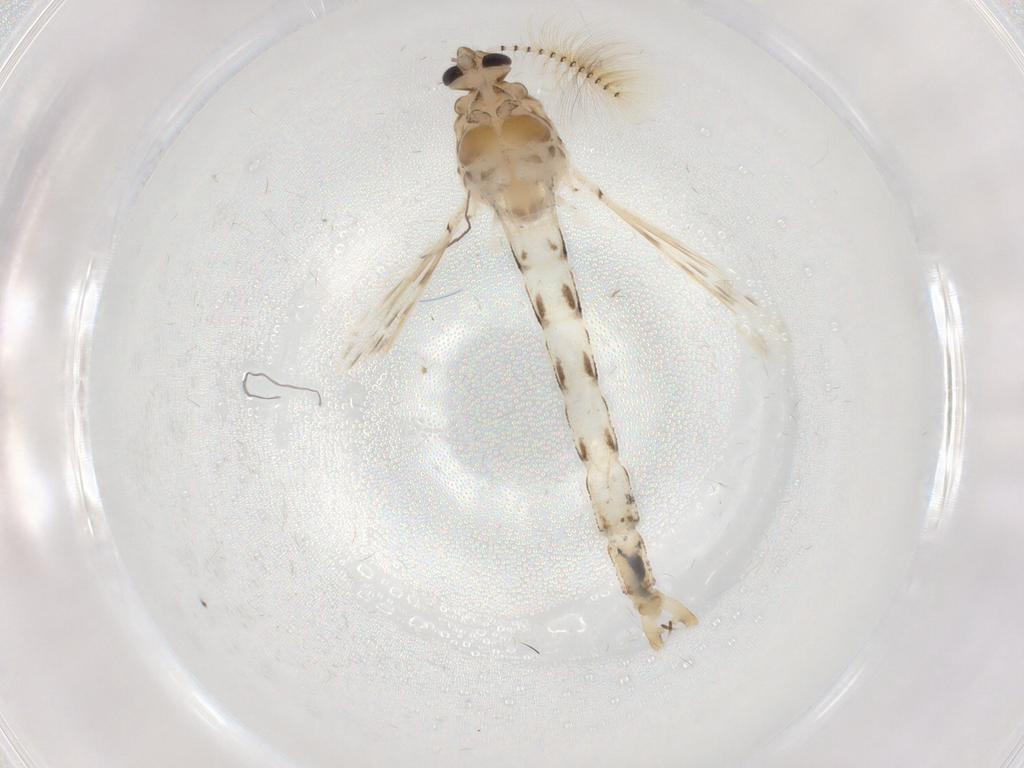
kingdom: Animalia
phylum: Arthropoda
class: Insecta
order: Diptera
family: Chaoboridae
